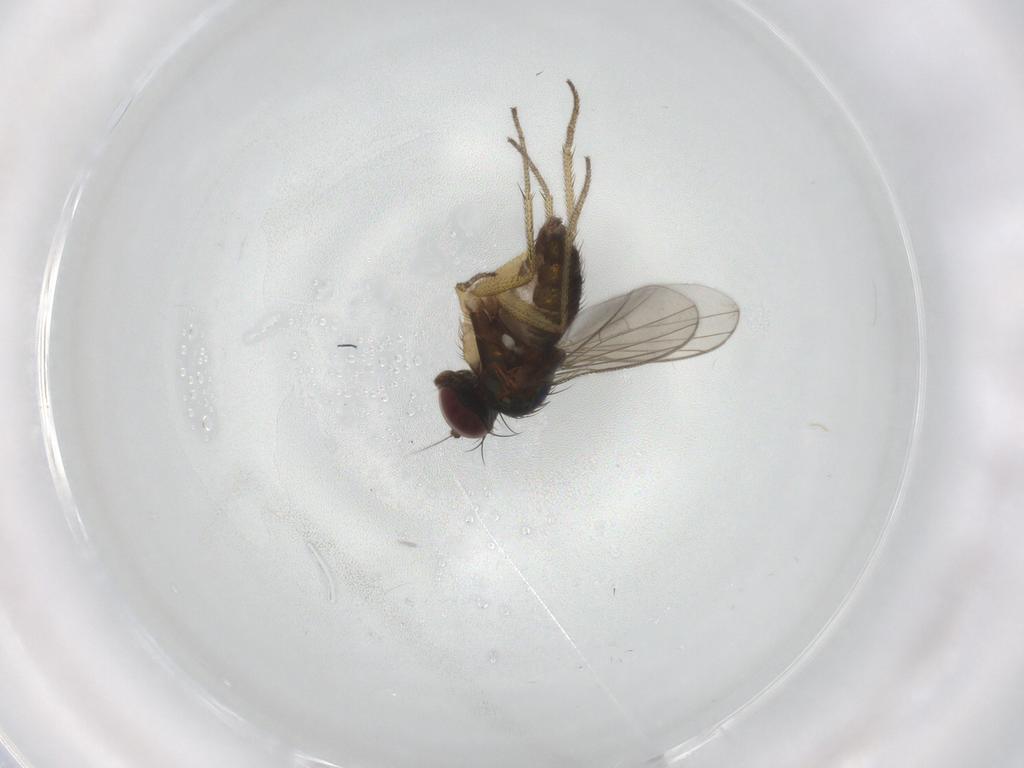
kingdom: Animalia
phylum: Arthropoda
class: Insecta
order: Diptera
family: Dolichopodidae
